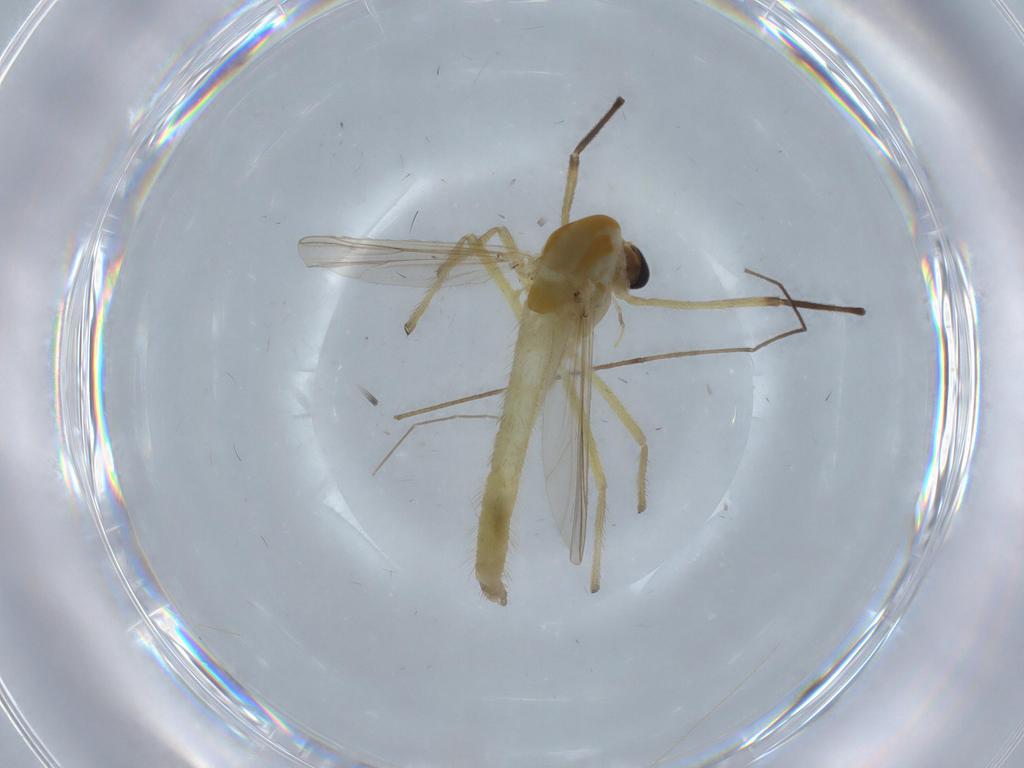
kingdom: Animalia
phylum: Arthropoda
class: Insecta
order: Diptera
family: Chironomidae
